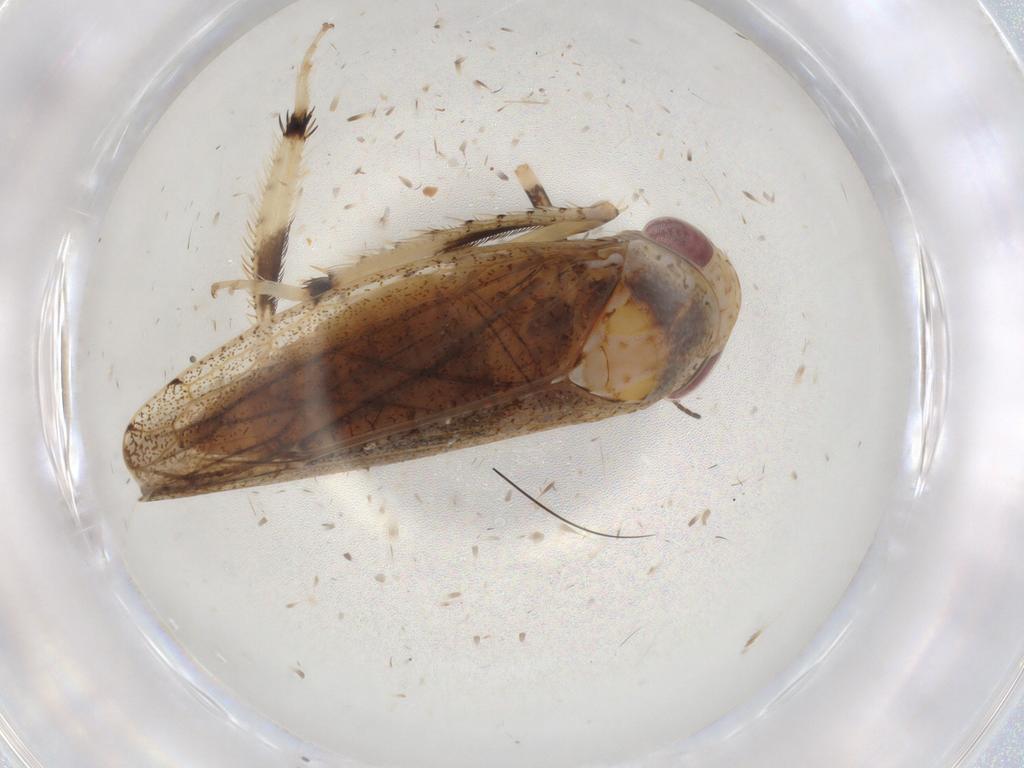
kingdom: Animalia
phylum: Arthropoda
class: Insecta
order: Hemiptera
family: Cicadellidae
